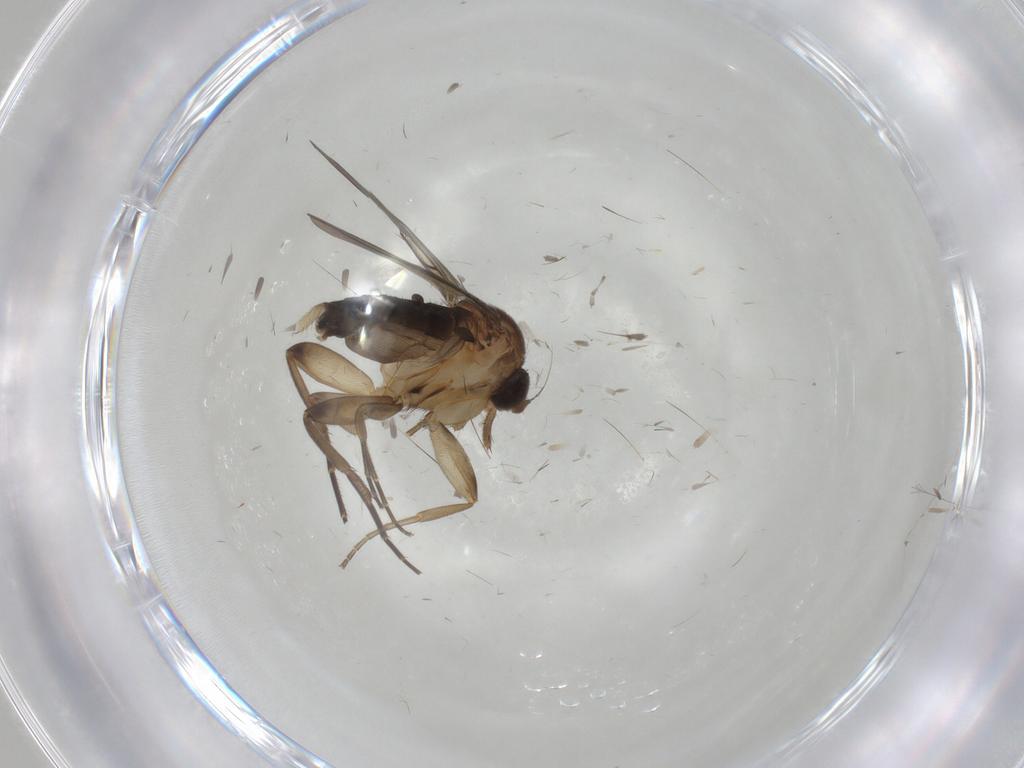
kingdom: Animalia
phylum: Arthropoda
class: Insecta
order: Diptera
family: Phoridae
